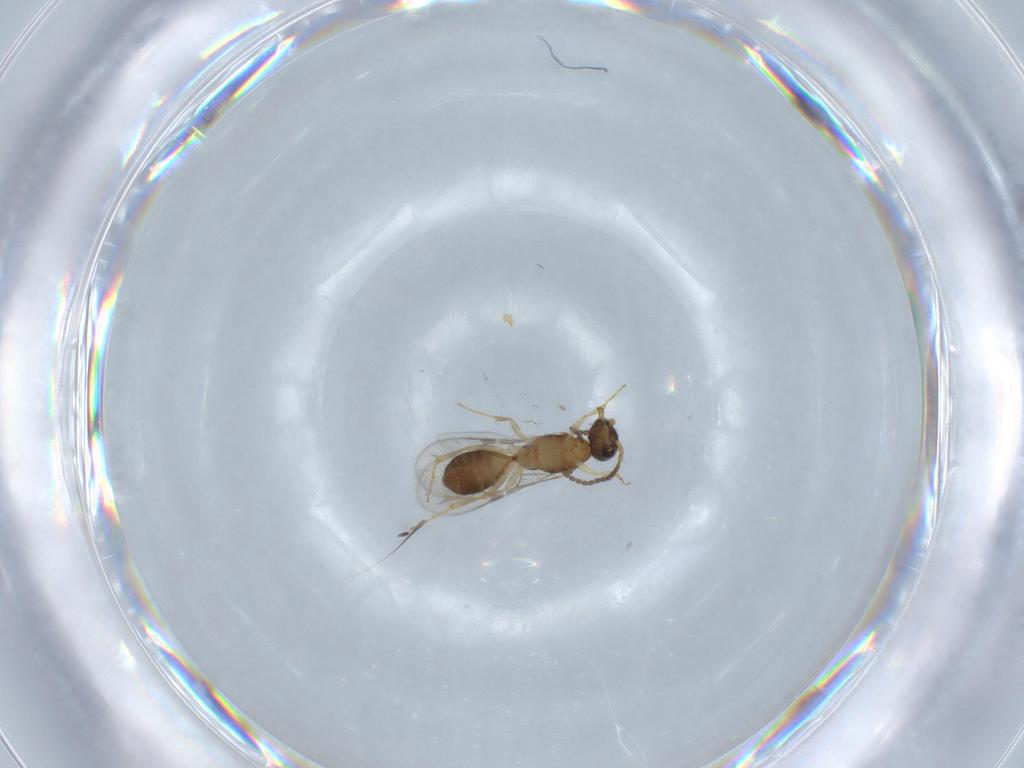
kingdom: Animalia
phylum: Arthropoda
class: Insecta
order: Hymenoptera
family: Bethylidae
